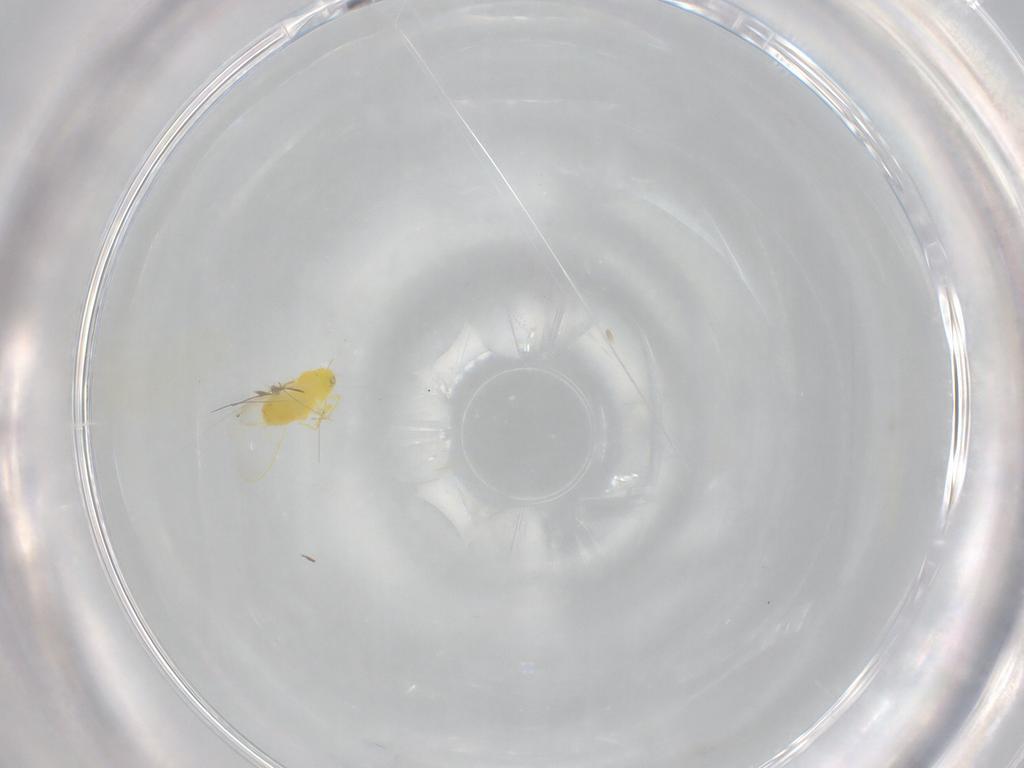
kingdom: Animalia
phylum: Arthropoda
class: Insecta
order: Hemiptera
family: Aleyrodidae
